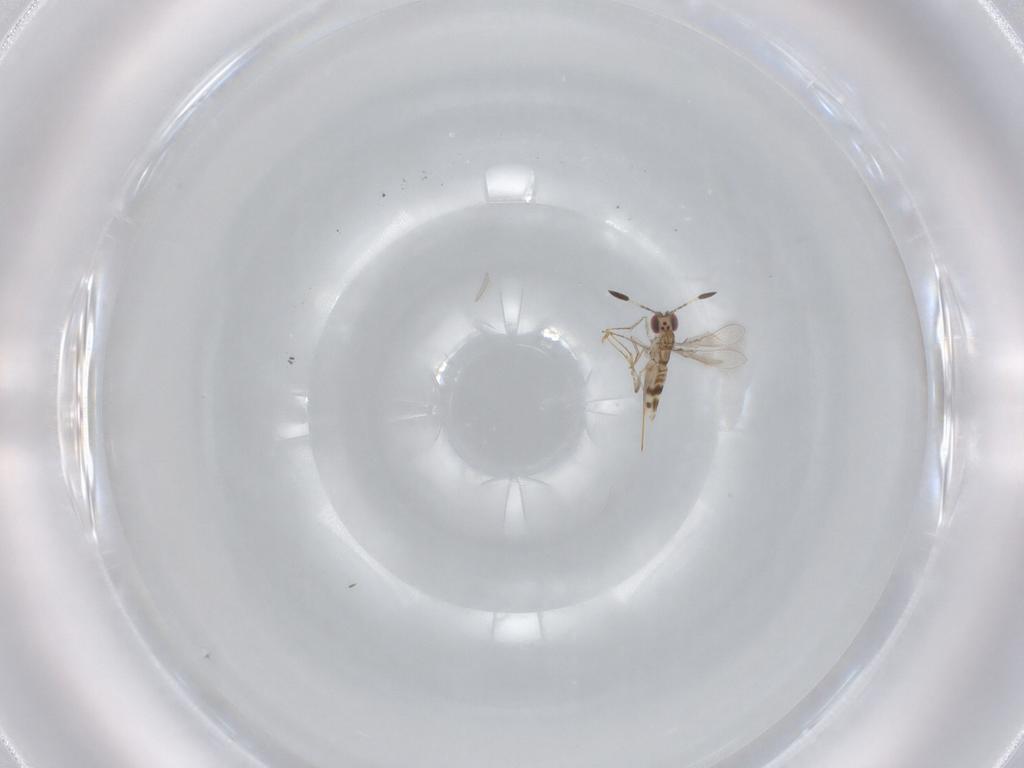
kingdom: Animalia
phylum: Arthropoda
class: Insecta
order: Hymenoptera
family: Mymaridae
